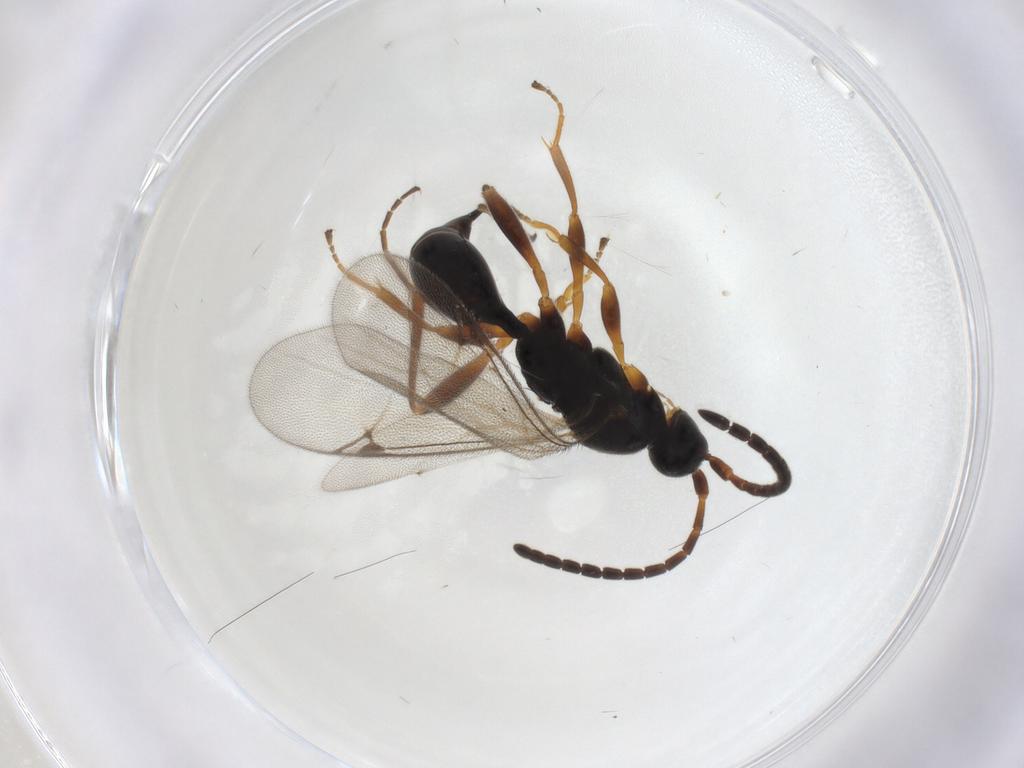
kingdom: Animalia
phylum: Arthropoda
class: Insecta
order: Hymenoptera
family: Proctotrupidae
